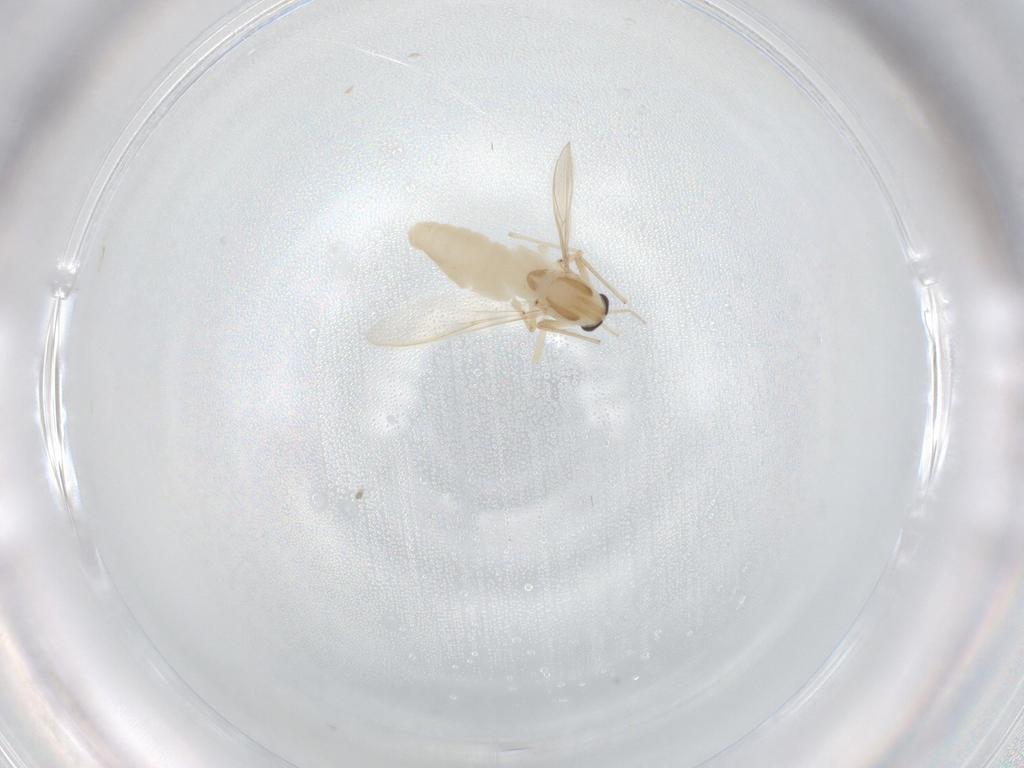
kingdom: Animalia
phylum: Arthropoda
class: Insecta
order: Diptera
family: Chironomidae
